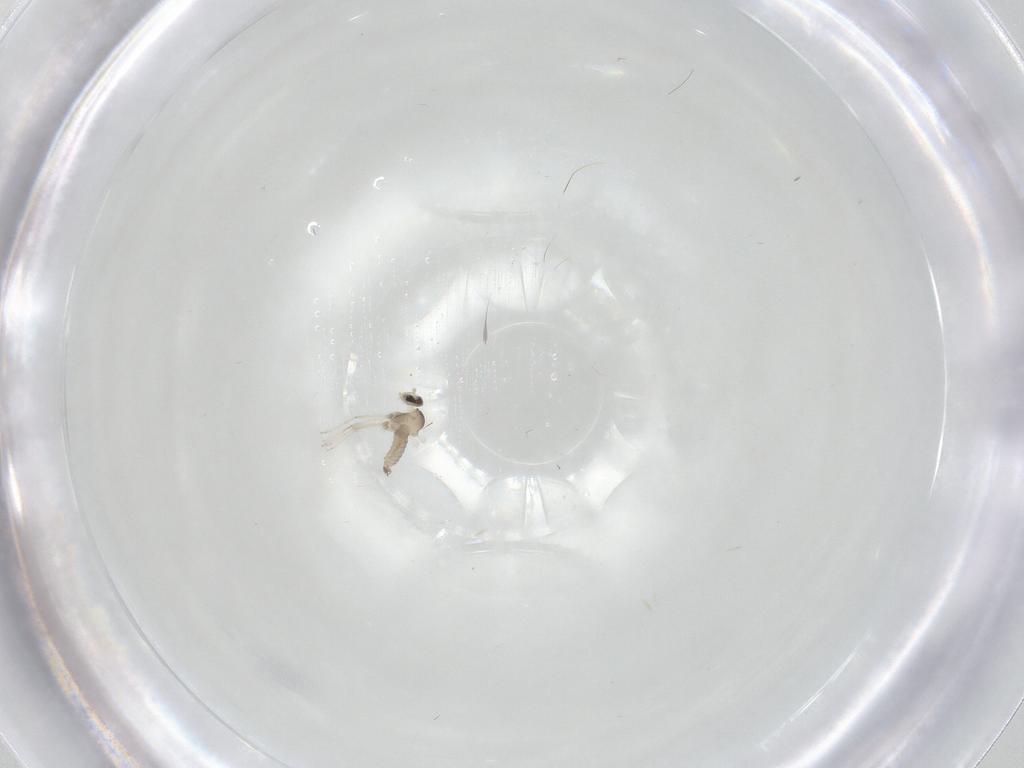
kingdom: Animalia
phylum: Arthropoda
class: Insecta
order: Diptera
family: Cecidomyiidae
